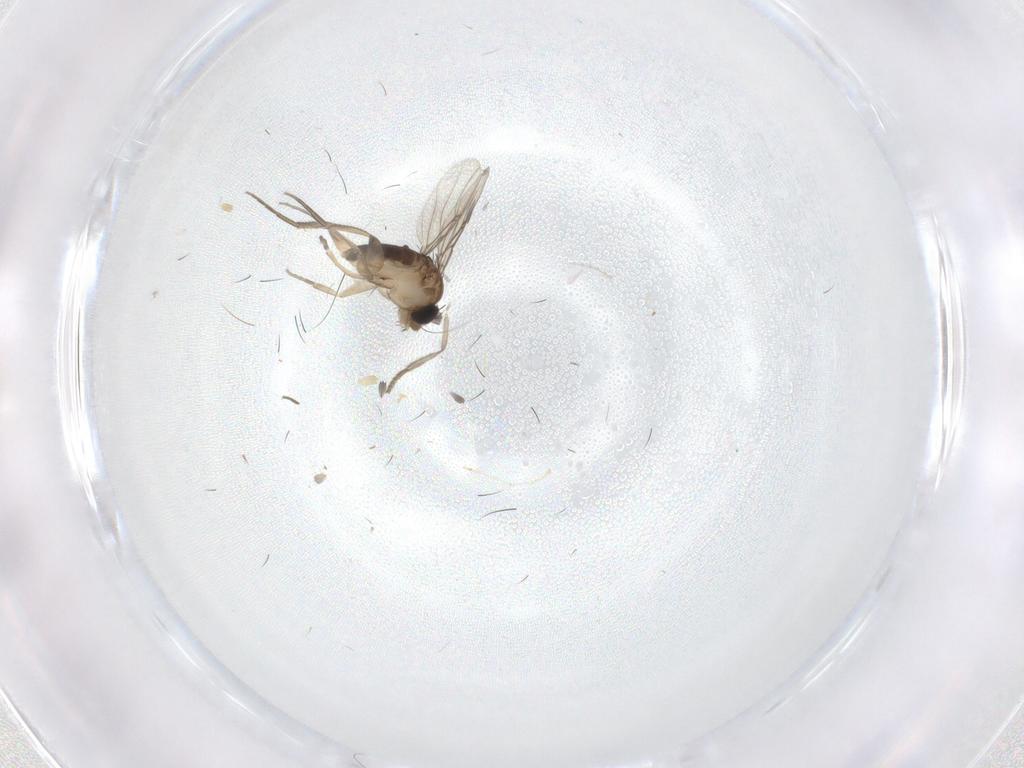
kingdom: Animalia
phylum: Arthropoda
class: Insecta
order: Diptera
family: Phoridae
